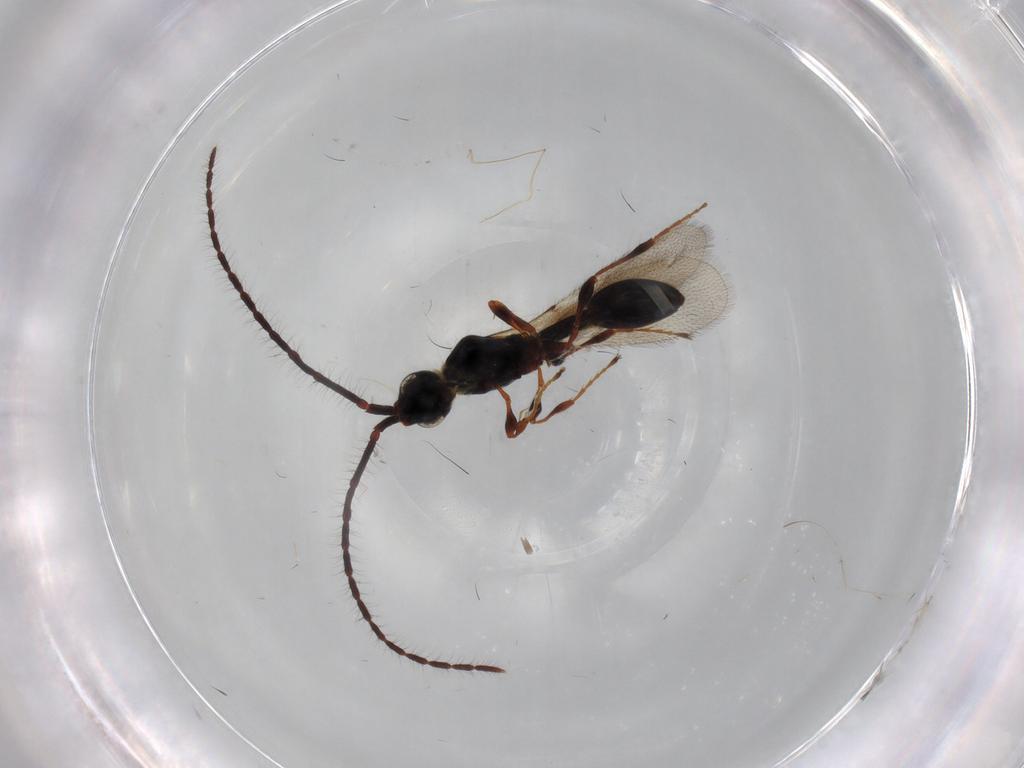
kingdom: Animalia
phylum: Arthropoda
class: Insecta
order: Hymenoptera
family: Diapriidae
